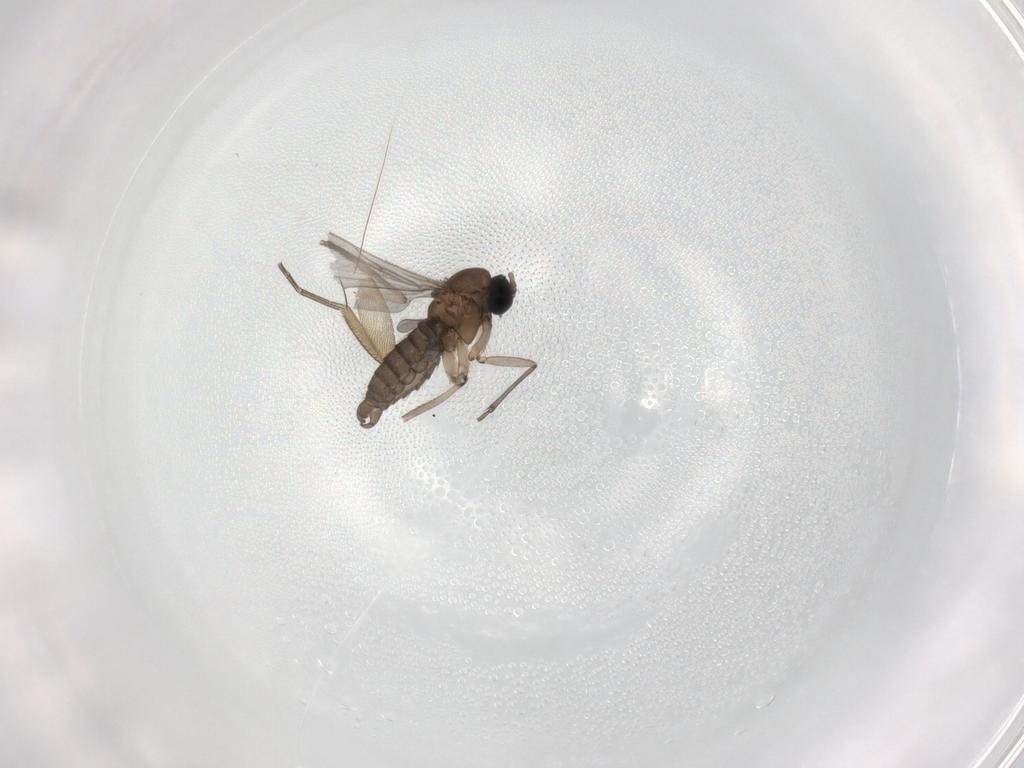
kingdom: Animalia
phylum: Arthropoda
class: Insecta
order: Diptera
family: Phoridae
